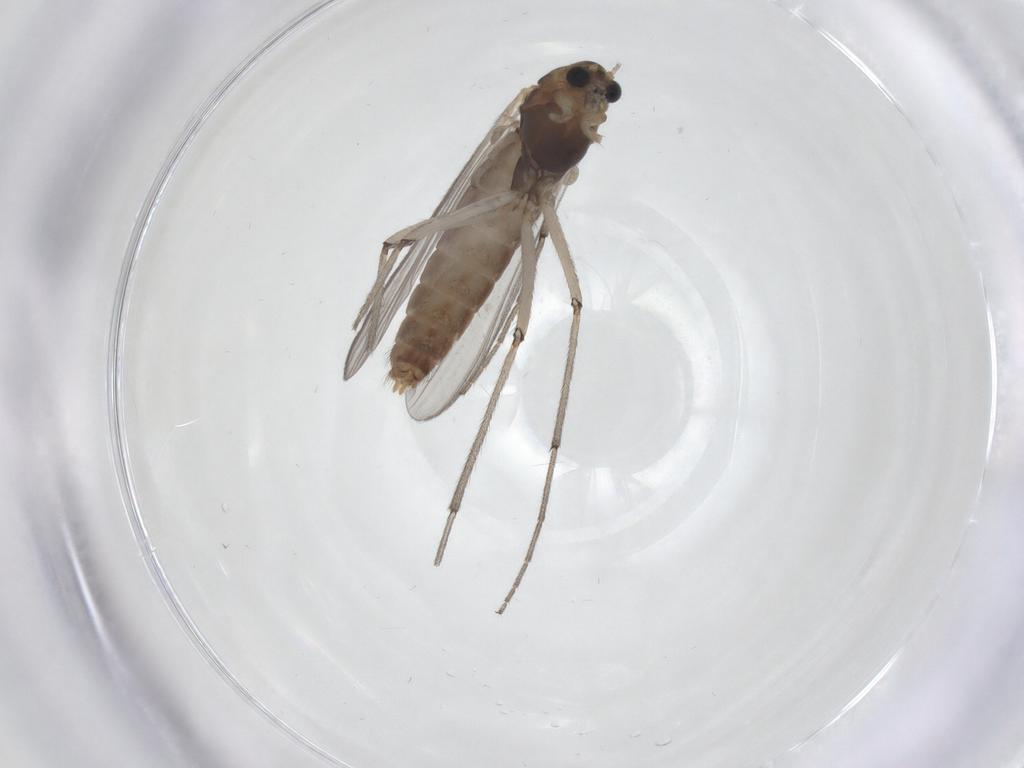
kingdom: Animalia
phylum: Arthropoda
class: Insecta
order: Diptera
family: Chironomidae
